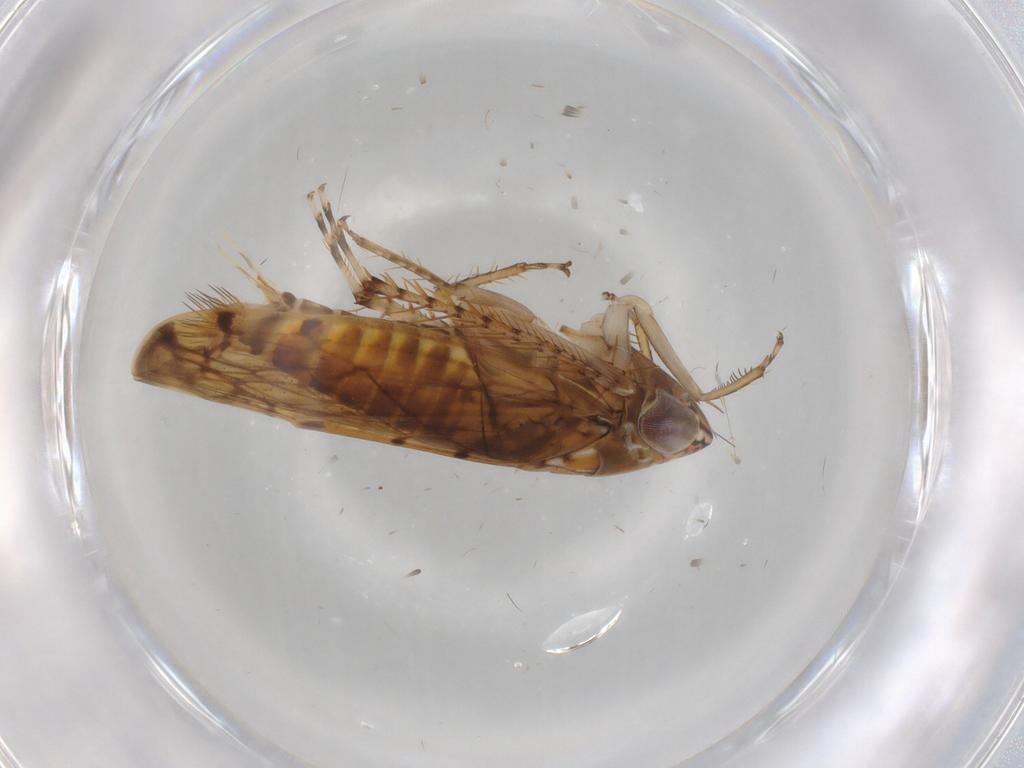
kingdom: Animalia
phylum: Arthropoda
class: Insecta
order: Hemiptera
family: Coccoidea_incertae_sedis
